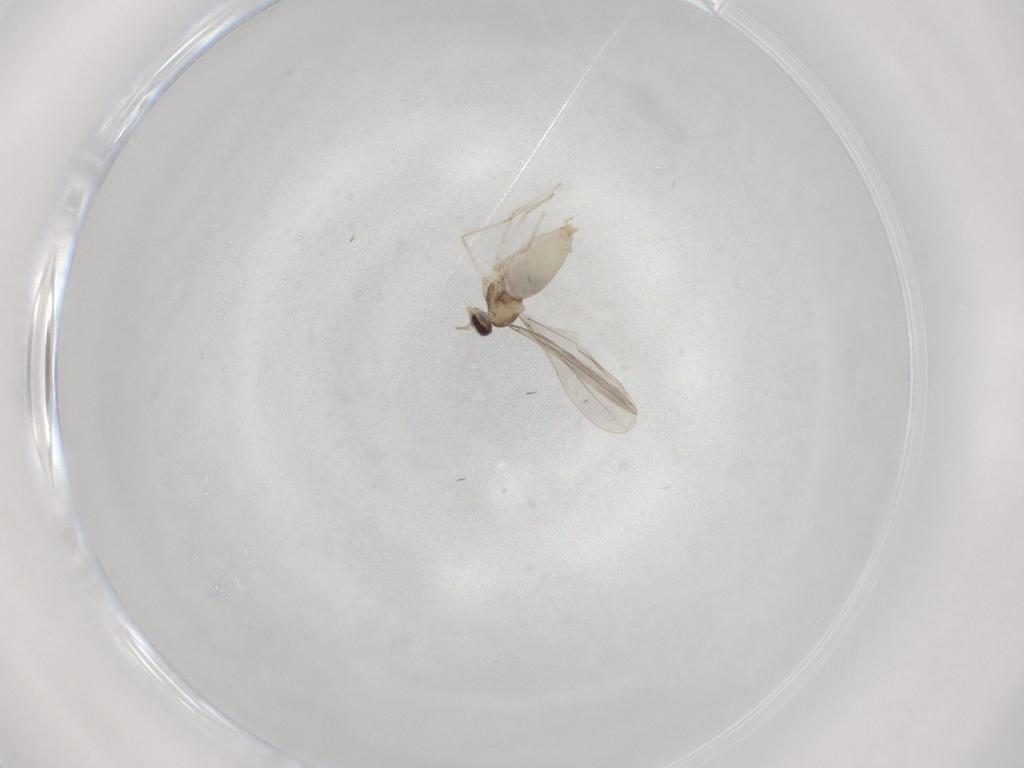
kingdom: Animalia
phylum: Arthropoda
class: Insecta
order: Diptera
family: Cecidomyiidae
